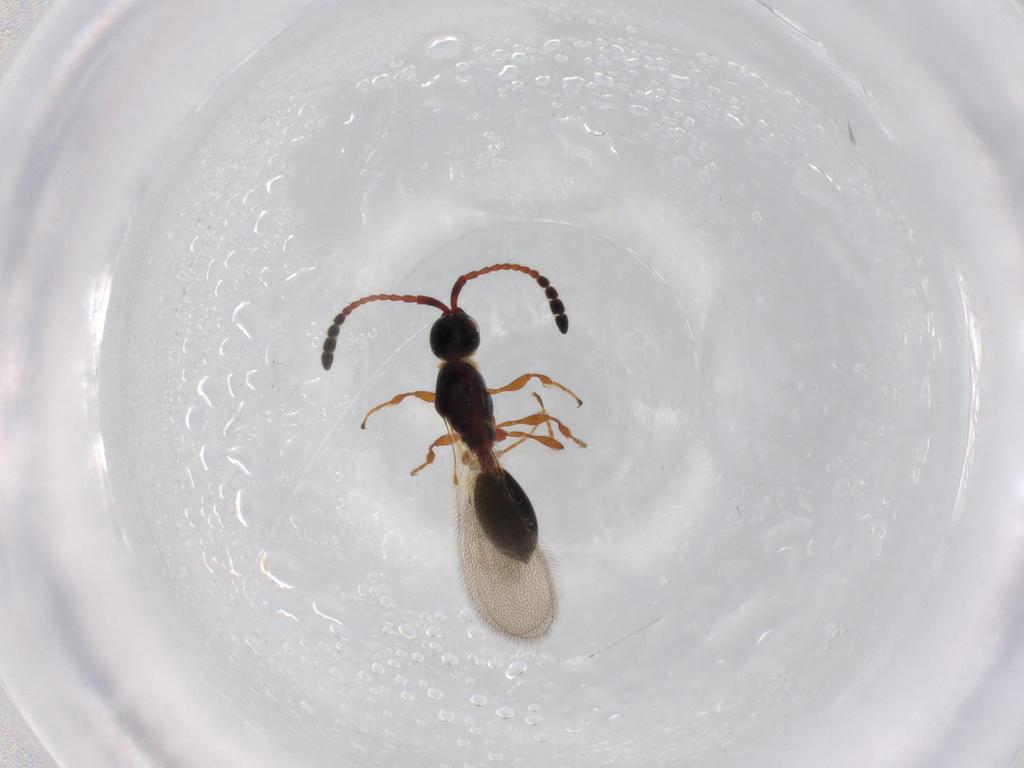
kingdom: Animalia
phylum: Arthropoda
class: Insecta
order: Hymenoptera
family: Diapriidae
